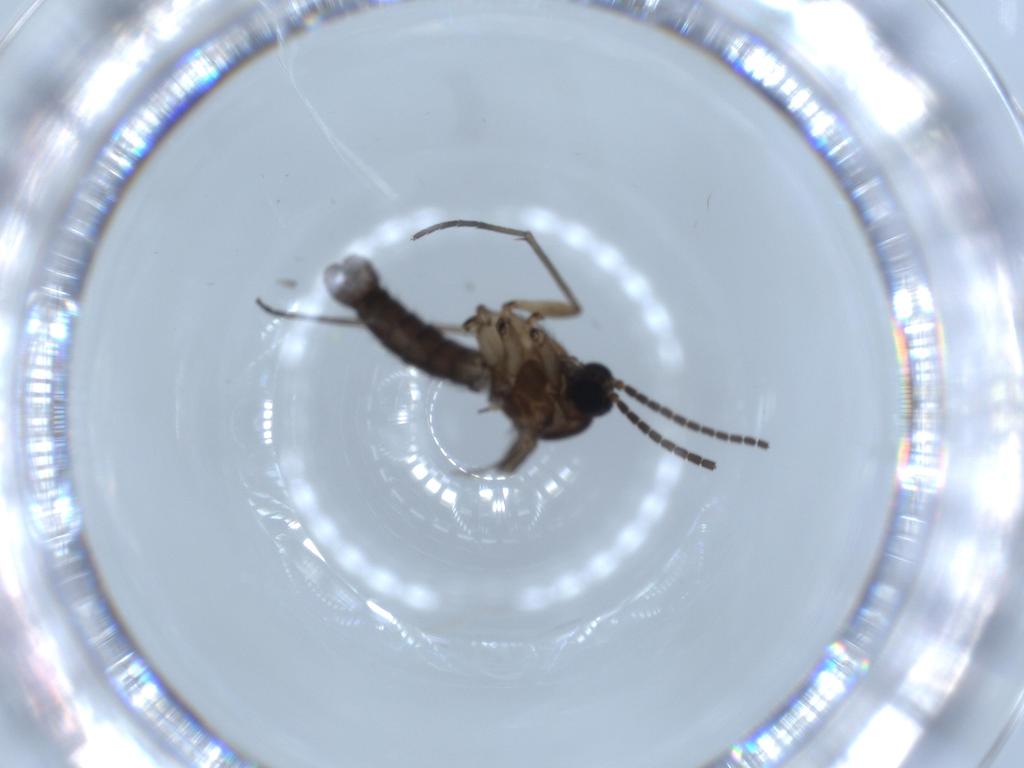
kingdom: Animalia
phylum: Arthropoda
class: Insecta
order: Diptera
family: Sciaridae
